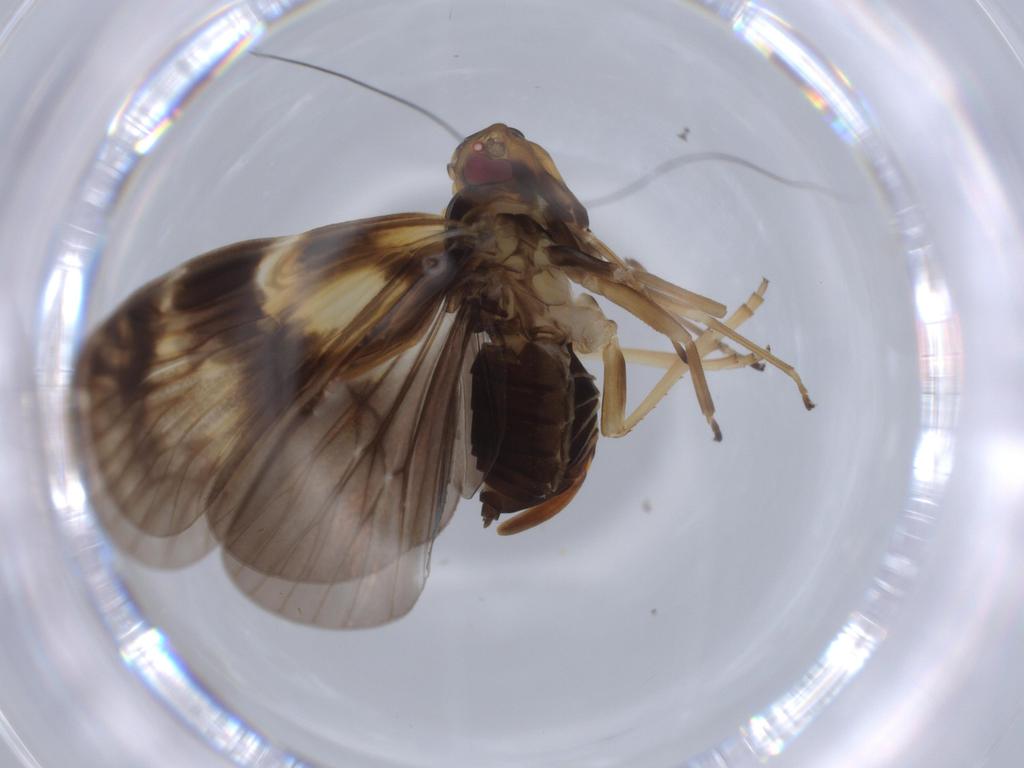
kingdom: Animalia
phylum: Arthropoda
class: Insecta
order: Hemiptera
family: Cixiidae
